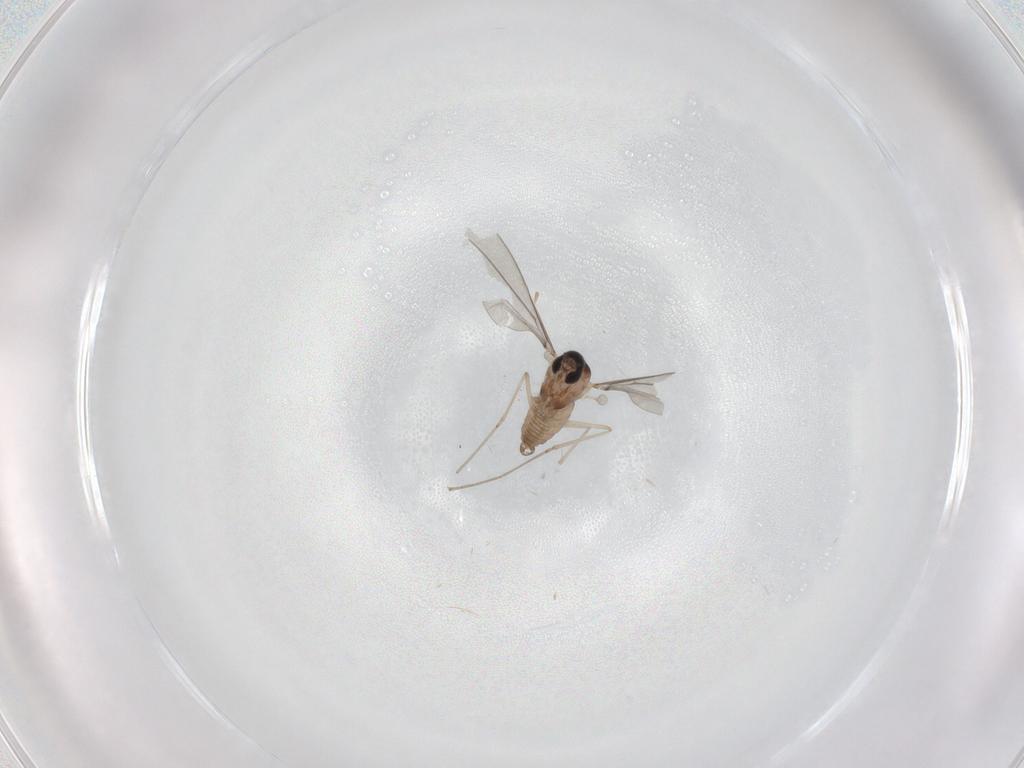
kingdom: Animalia
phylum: Arthropoda
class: Insecta
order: Diptera
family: Cecidomyiidae
